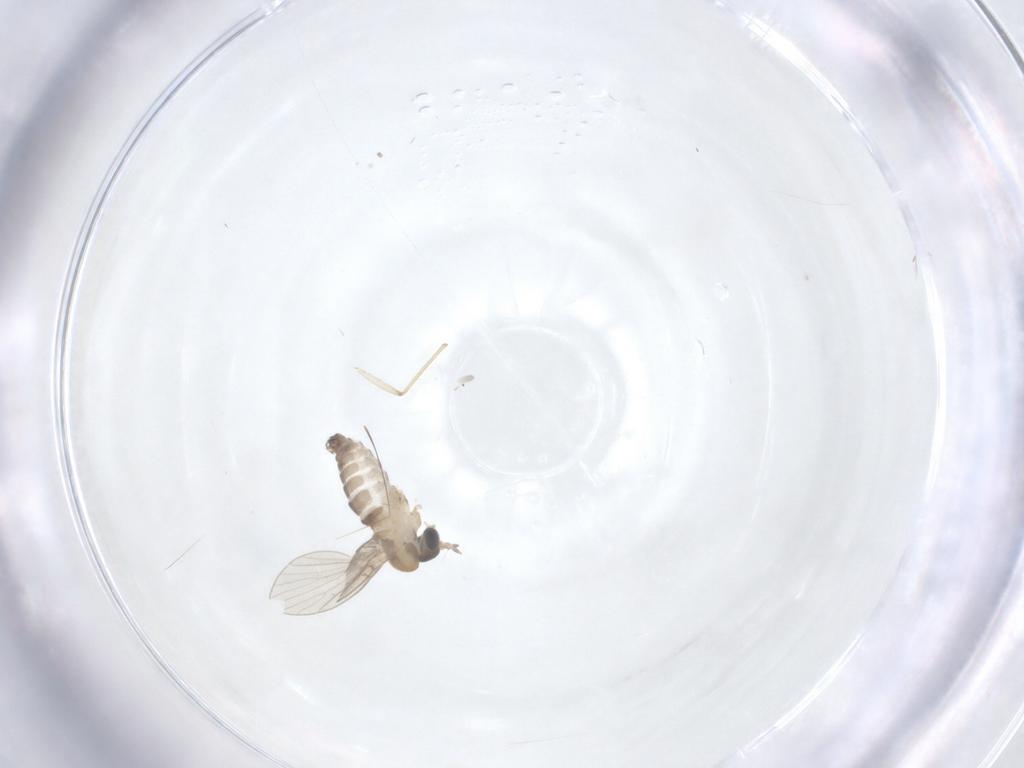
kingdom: Animalia
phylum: Arthropoda
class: Insecta
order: Diptera
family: Psychodidae
